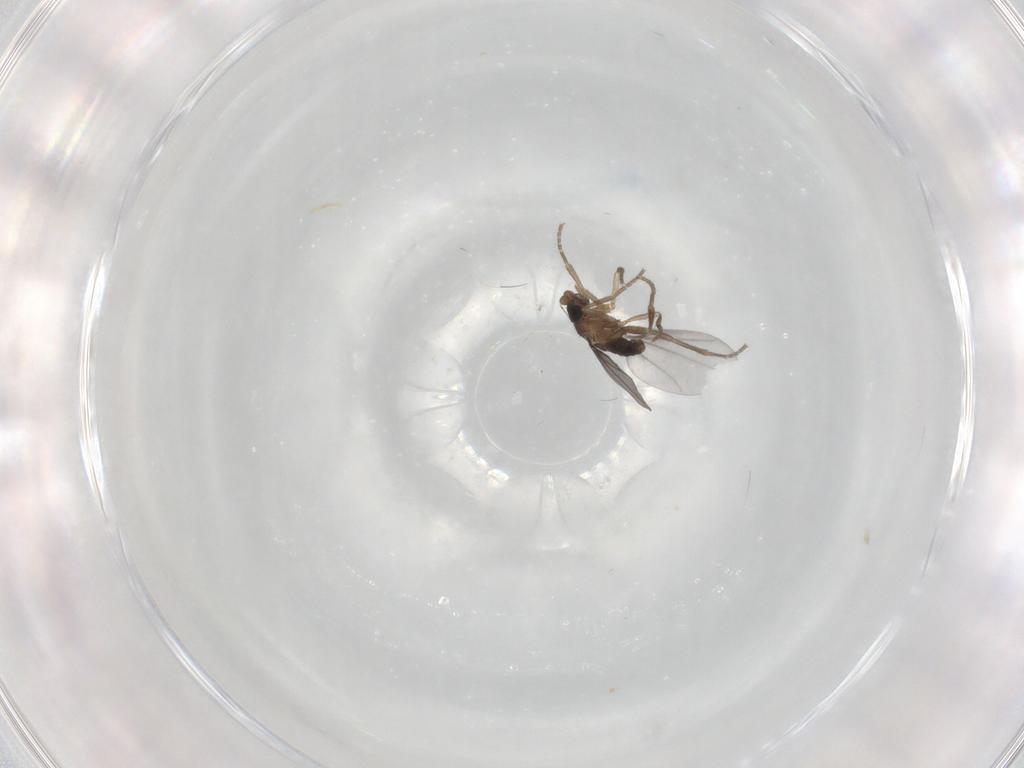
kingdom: Animalia
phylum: Arthropoda
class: Insecta
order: Diptera
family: Phoridae
